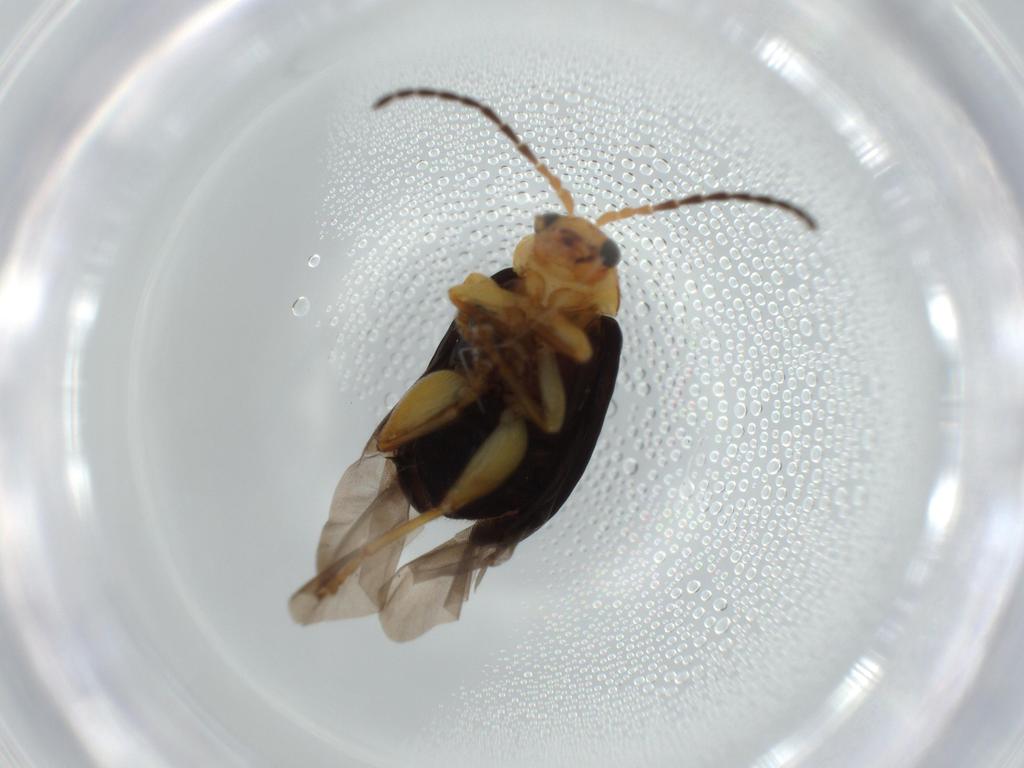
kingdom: Animalia
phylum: Arthropoda
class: Insecta
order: Coleoptera
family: Chrysomelidae
